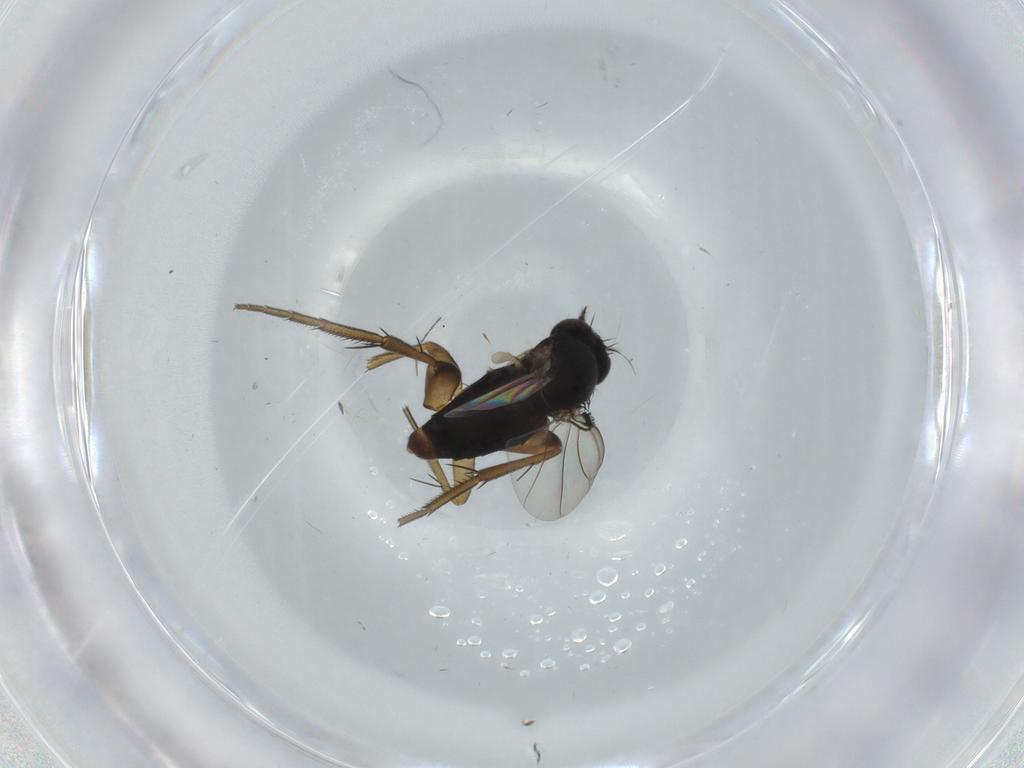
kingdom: Animalia
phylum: Arthropoda
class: Insecta
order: Diptera
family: Phoridae
